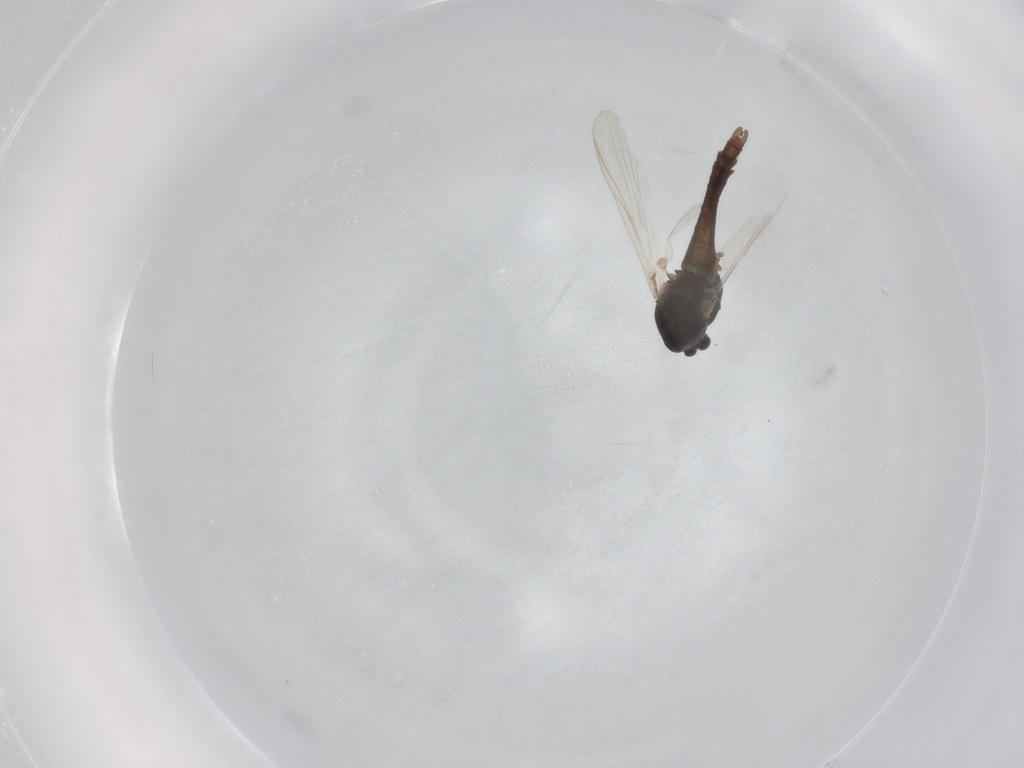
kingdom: Animalia
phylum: Arthropoda
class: Insecta
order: Diptera
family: Chironomidae
